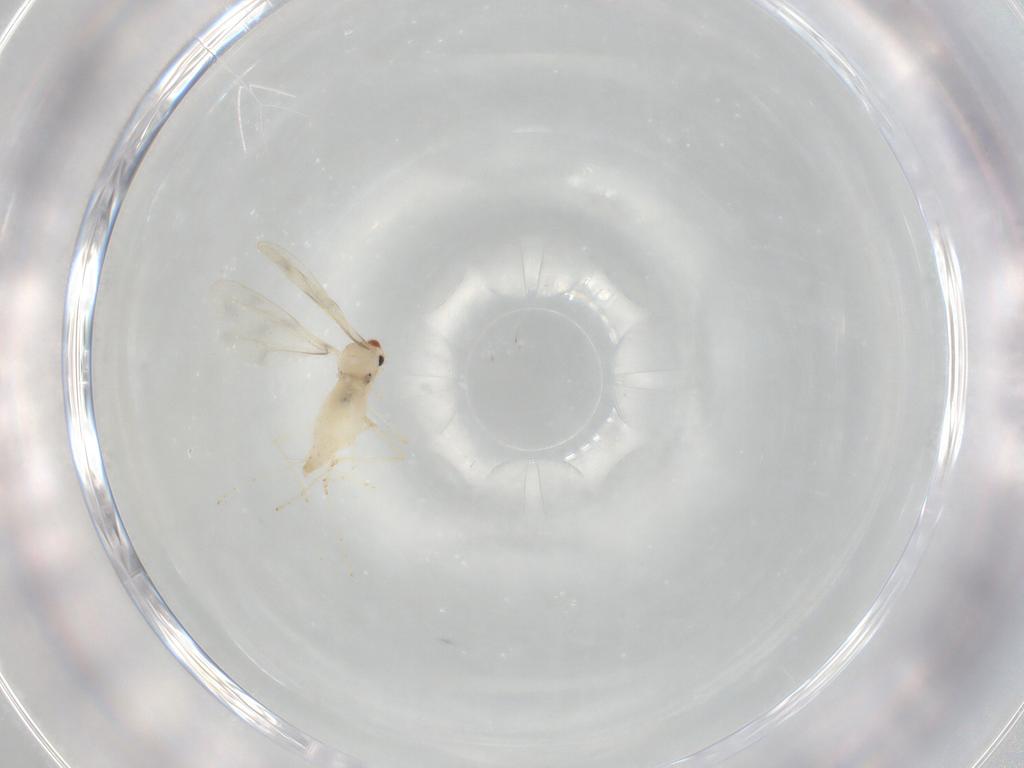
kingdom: Animalia
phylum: Arthropoda
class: Insecta
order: Diptera
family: Cecidomyiidae
